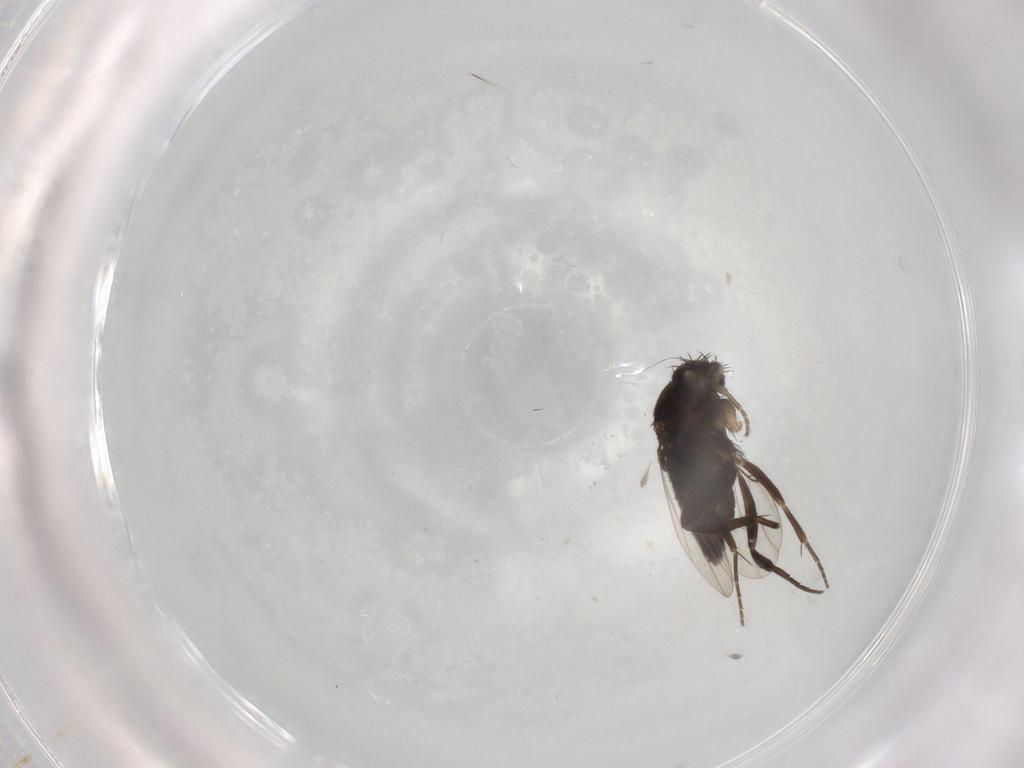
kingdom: Animalia
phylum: Arthropoda
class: Insecta
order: Diptera
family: Phoridae
